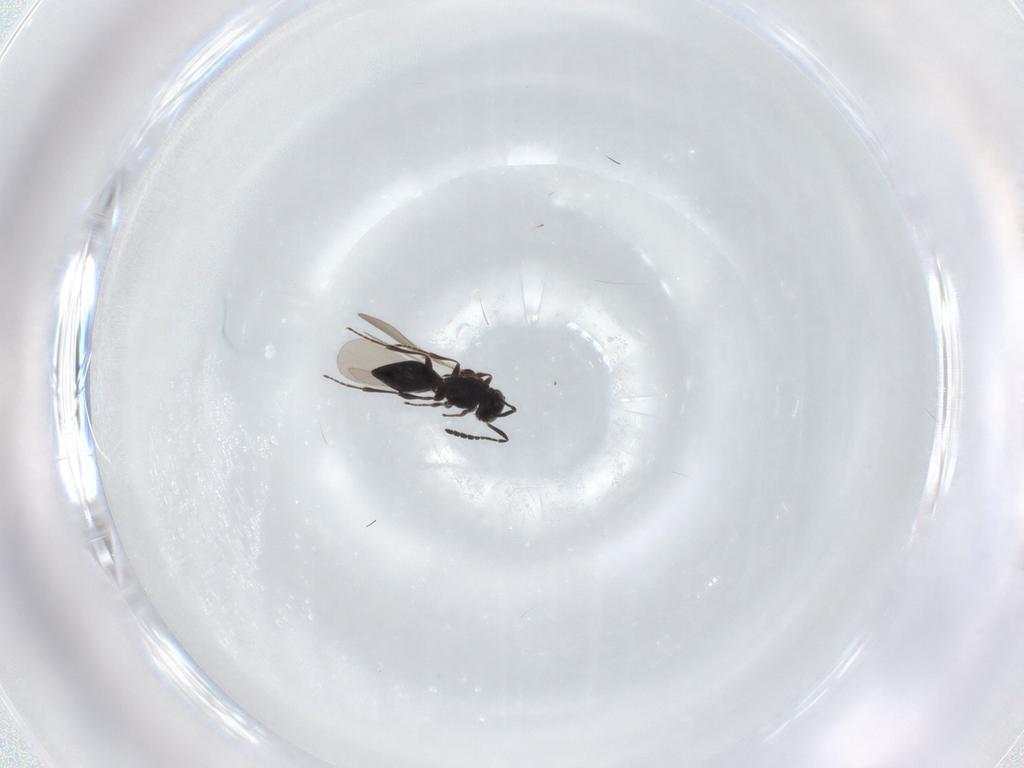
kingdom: Animalia
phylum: Arthropoda
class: Insecta
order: Hymenoptera
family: Platygastridae
